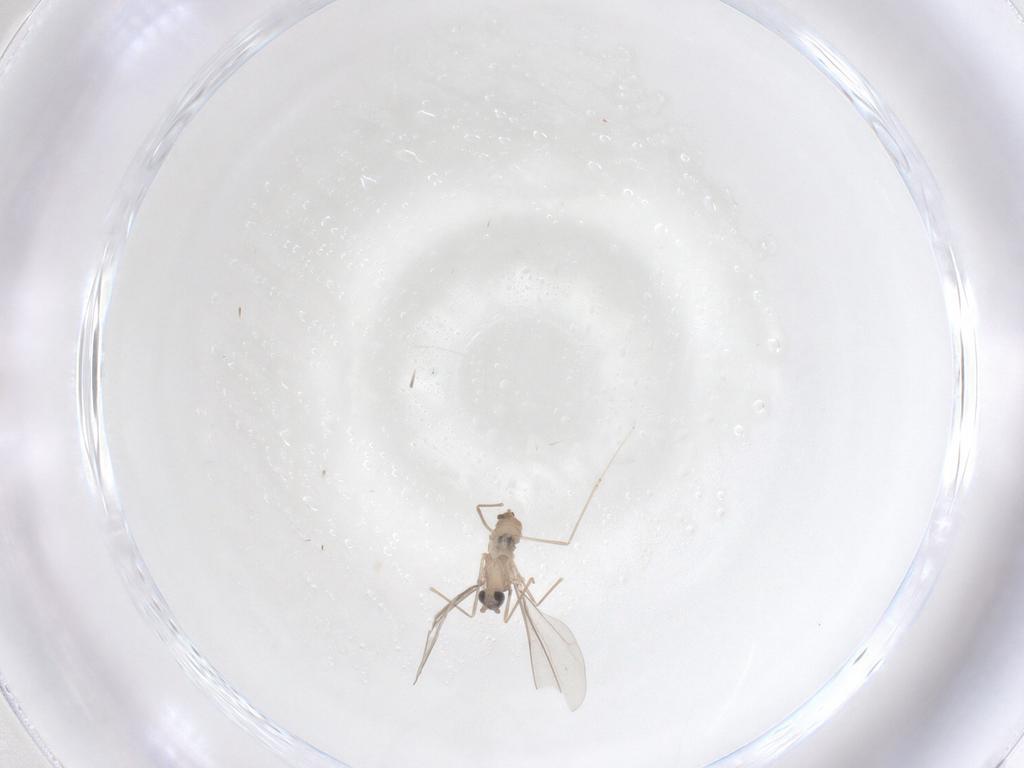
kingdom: Animalia
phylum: Arthropoda
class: Insecta
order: Diptera
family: Cecidomyiidae
